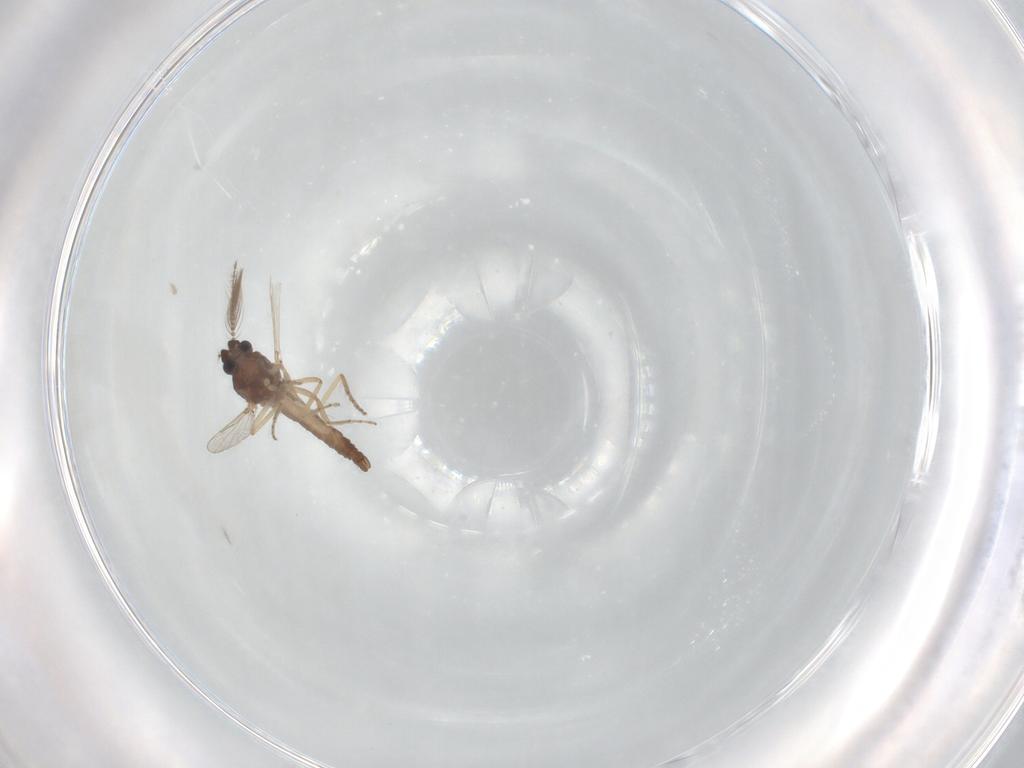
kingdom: Animalia
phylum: Arthropoda
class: Insecta
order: Diptera
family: Ceratopogonidae
